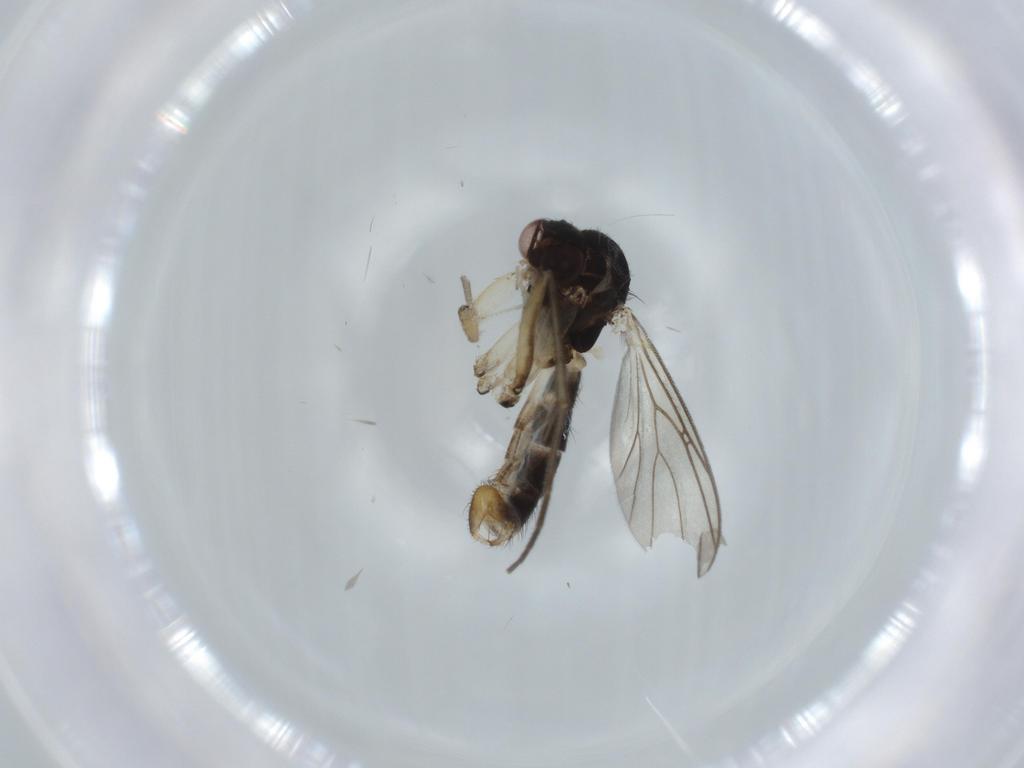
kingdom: Animalia
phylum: Arthropoda
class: Insecta
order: Diptera
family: Mycetophilidae
